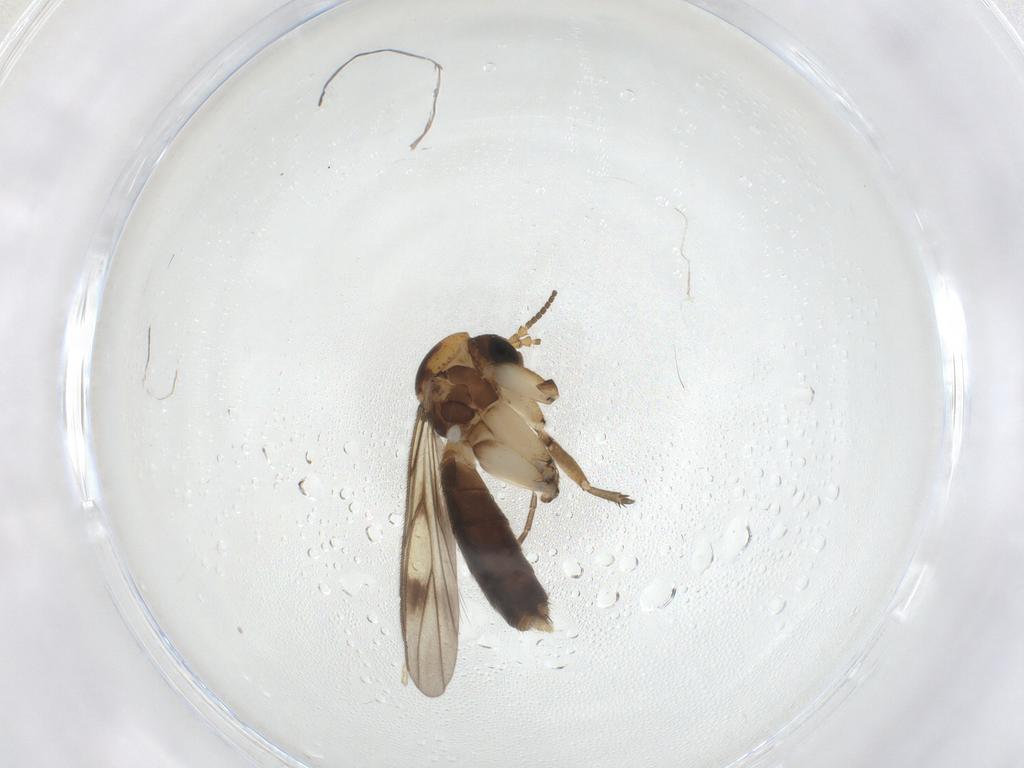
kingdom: Animalia
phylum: Arthropoda
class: Insecta
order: Diptera
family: Mycetophilidae
